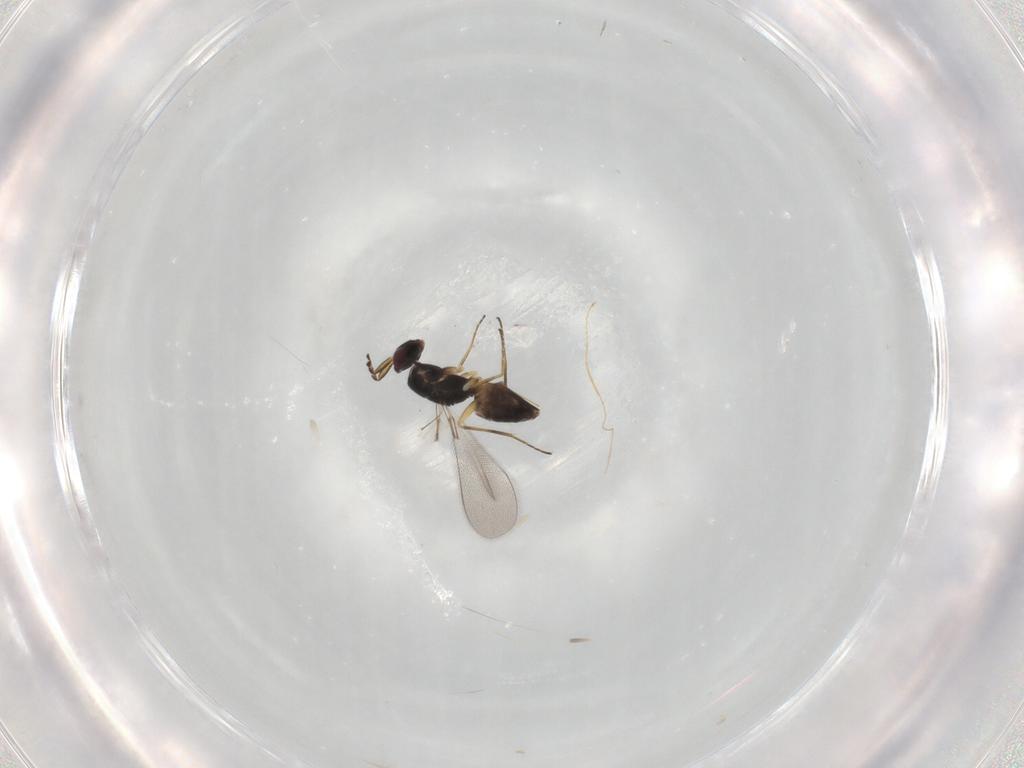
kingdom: Animalia
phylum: Arthropoda
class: Insecta
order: Hymenoptera
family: Mymaridae
